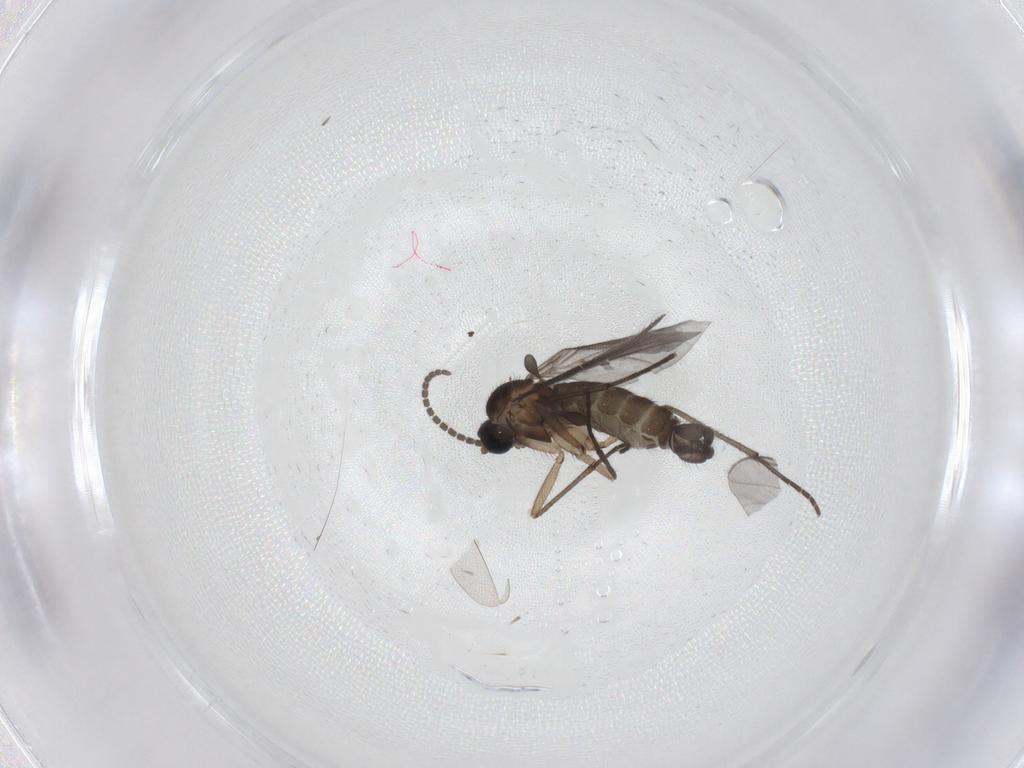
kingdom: Animalia
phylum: Arthropoda
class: Insecta
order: Diptera
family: Sciaridae
